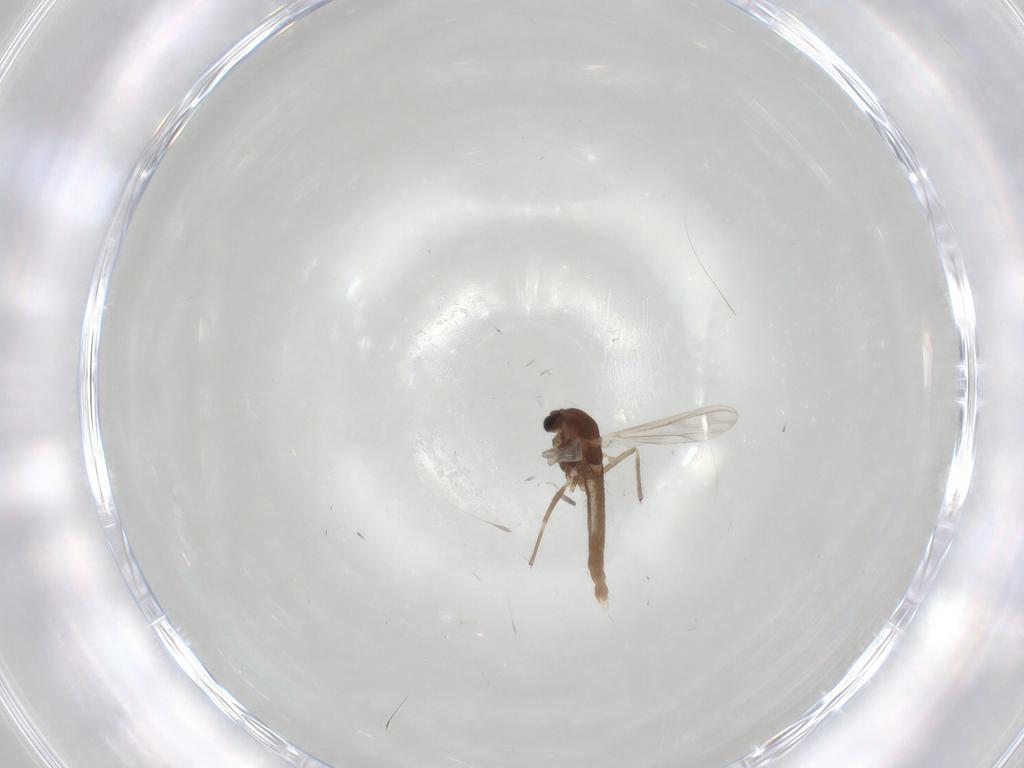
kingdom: Animalia
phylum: Arthropoda
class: Insecta
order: Diptera
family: Chironomidae
